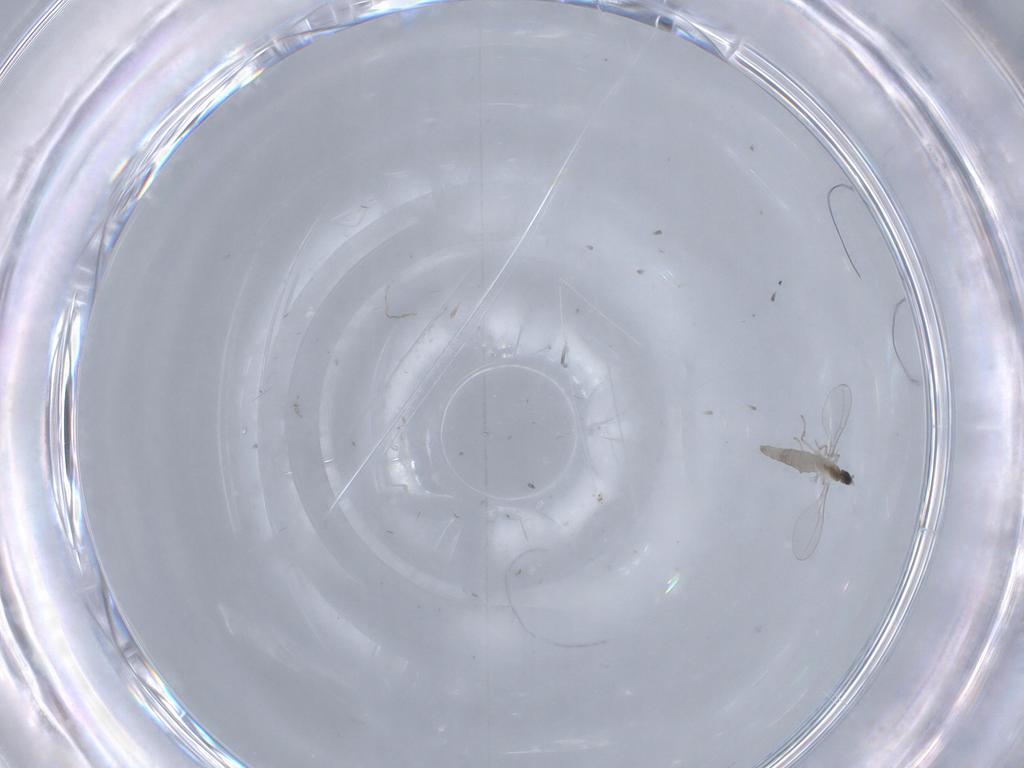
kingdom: Animalia
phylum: Arthropoda
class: Insecta
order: Diptera
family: Cecidomyiidae
